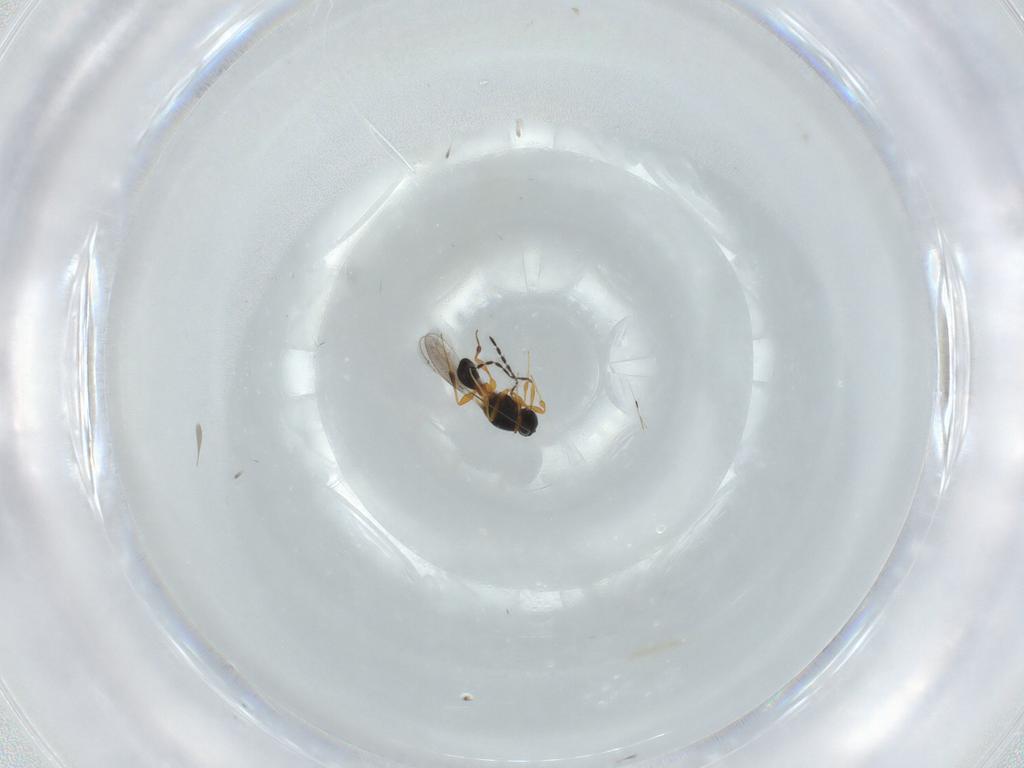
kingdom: Animalia
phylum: Arthropoda
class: Insecta
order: Hymenoptera
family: Platygastridae
